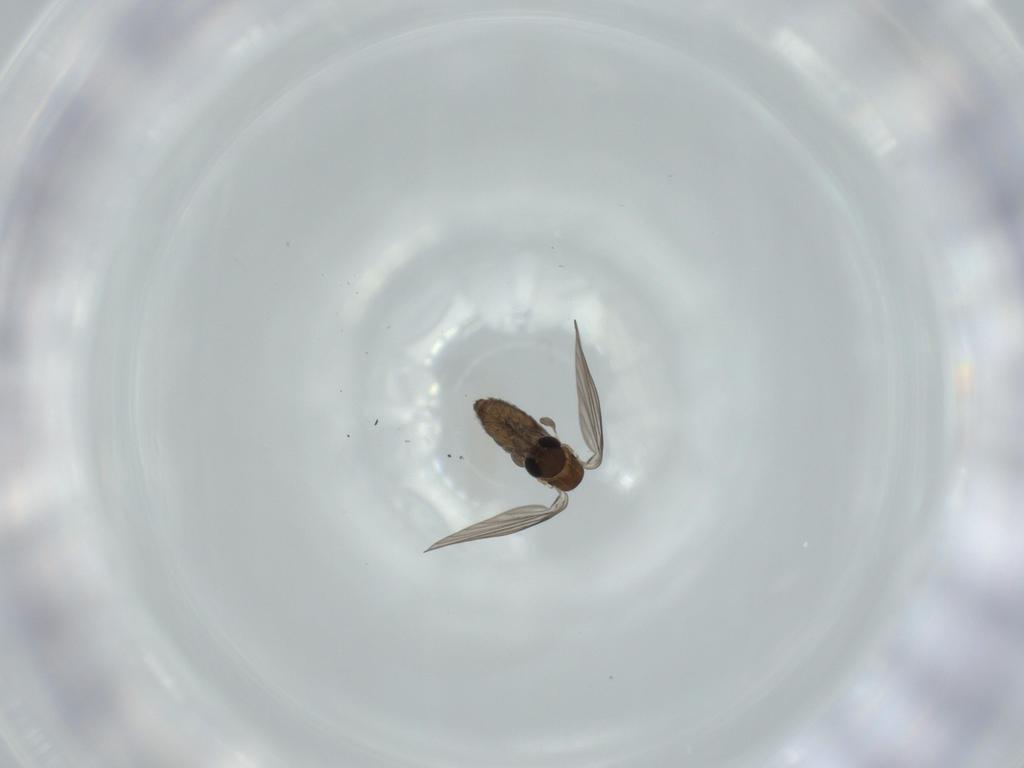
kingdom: Animalia
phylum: Arthropoda
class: Insecta
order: Diptera
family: Psychodidae
